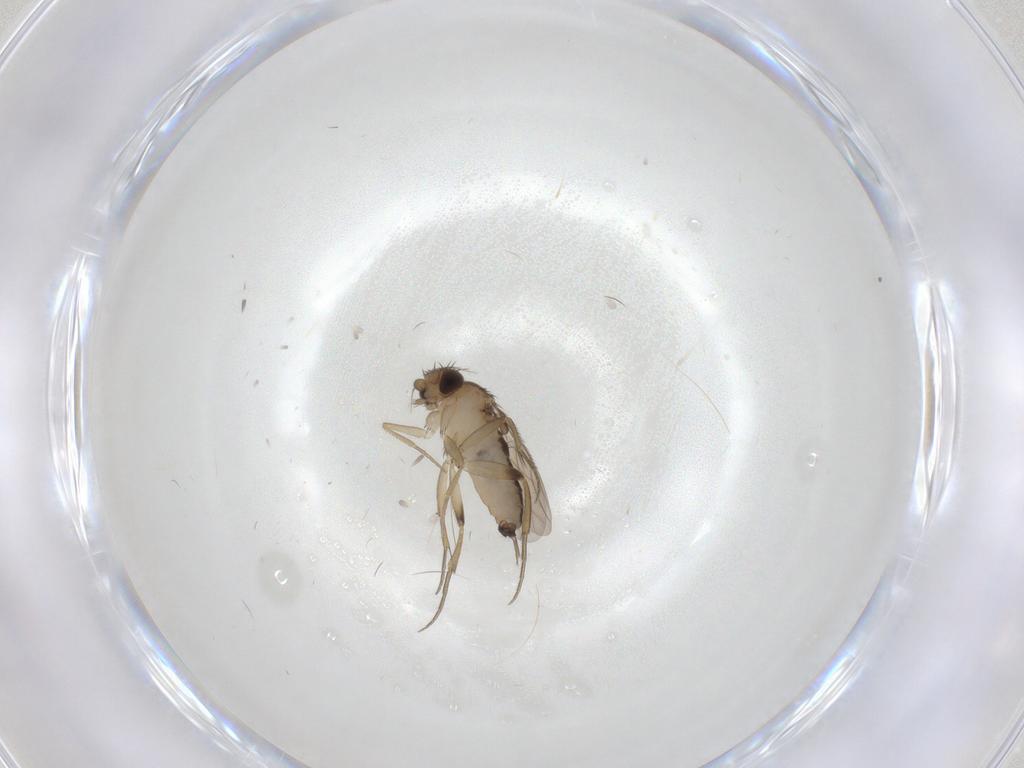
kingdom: Animalia
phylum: Arthropoda
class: Insecta
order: Diptera
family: Phoridae
